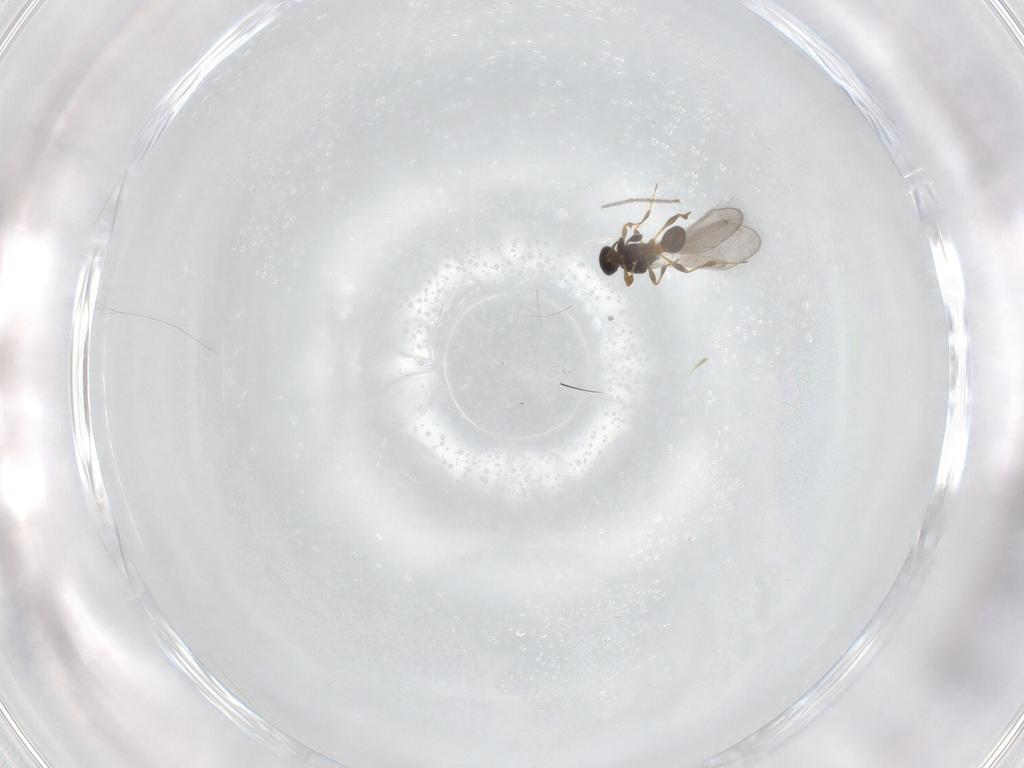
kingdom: Animalia
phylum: Arthropoda
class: Insecta
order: Hymenoptera
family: Platygastridae
